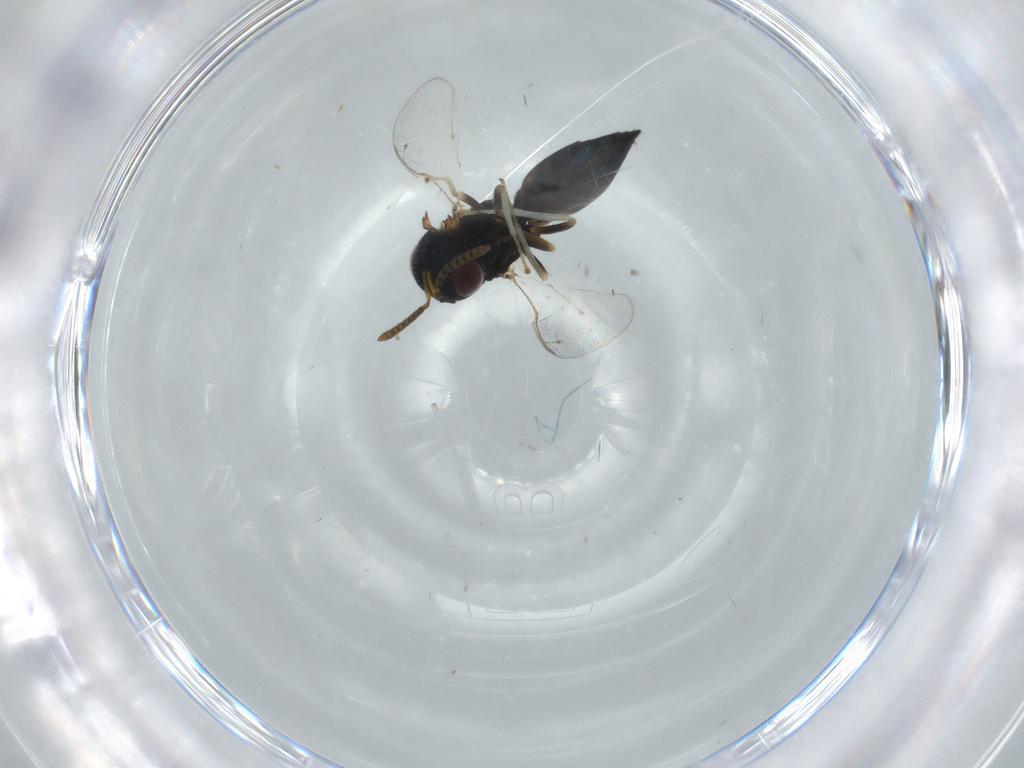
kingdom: Animalia
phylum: Arthropoda
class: Insecta
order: Hymenoptera
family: Pteromalidae
